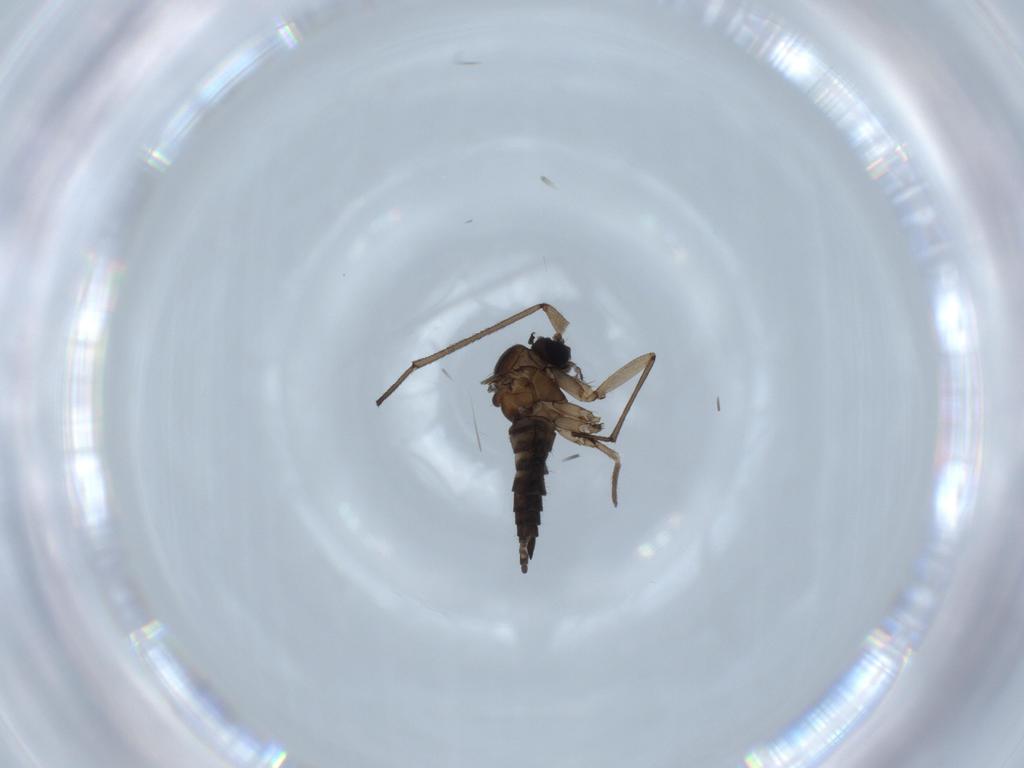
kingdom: Animalia
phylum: Arthropoda
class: Insecta
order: Diptera
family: Sciaridae
